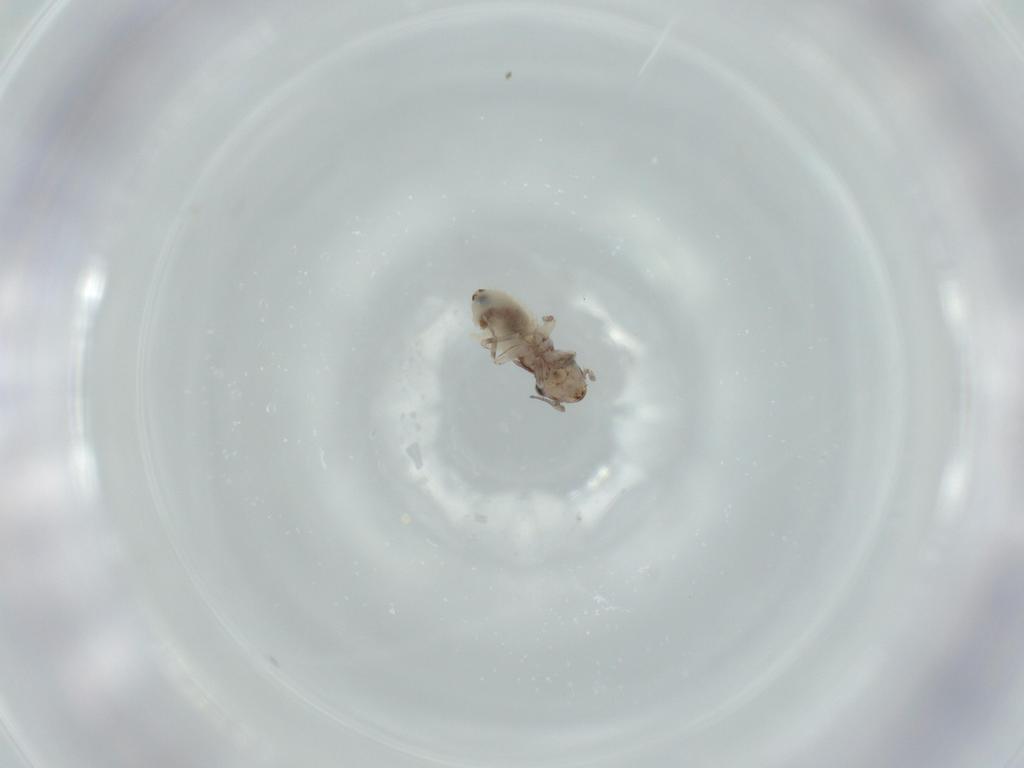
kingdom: Animalia
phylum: Arthropoda
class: Insecta
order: Psocodea
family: Lepidopsocidae
